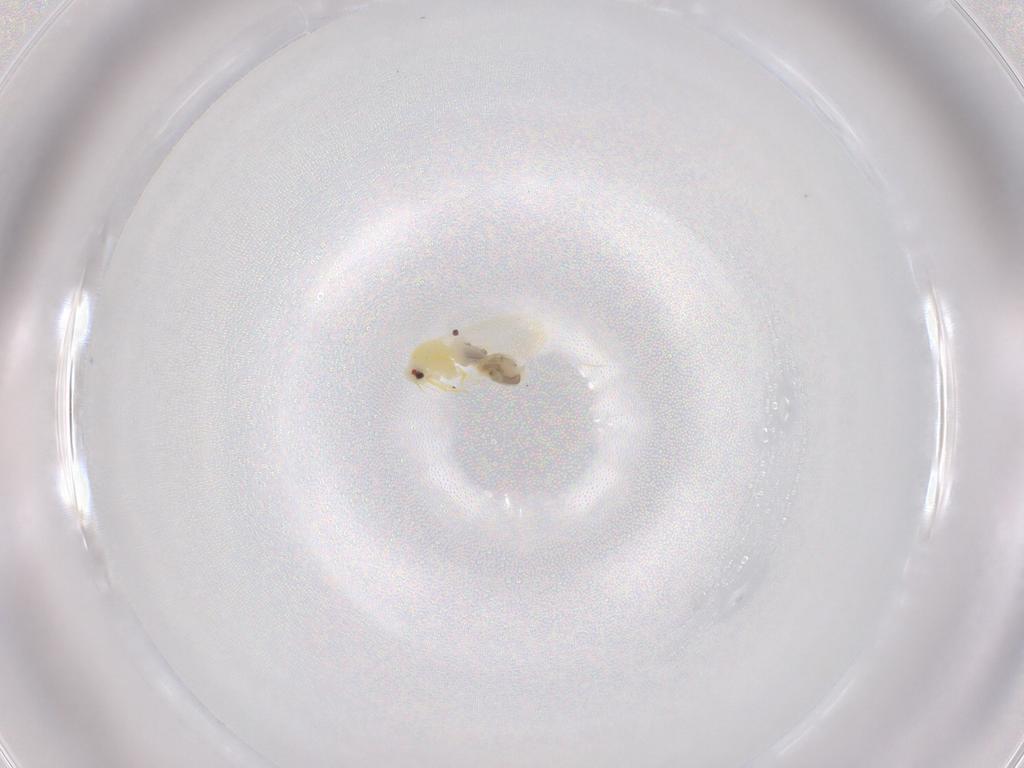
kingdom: Animalia
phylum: Arthropoda
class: Insecta
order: Hemiptera
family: Aleyrodidae
